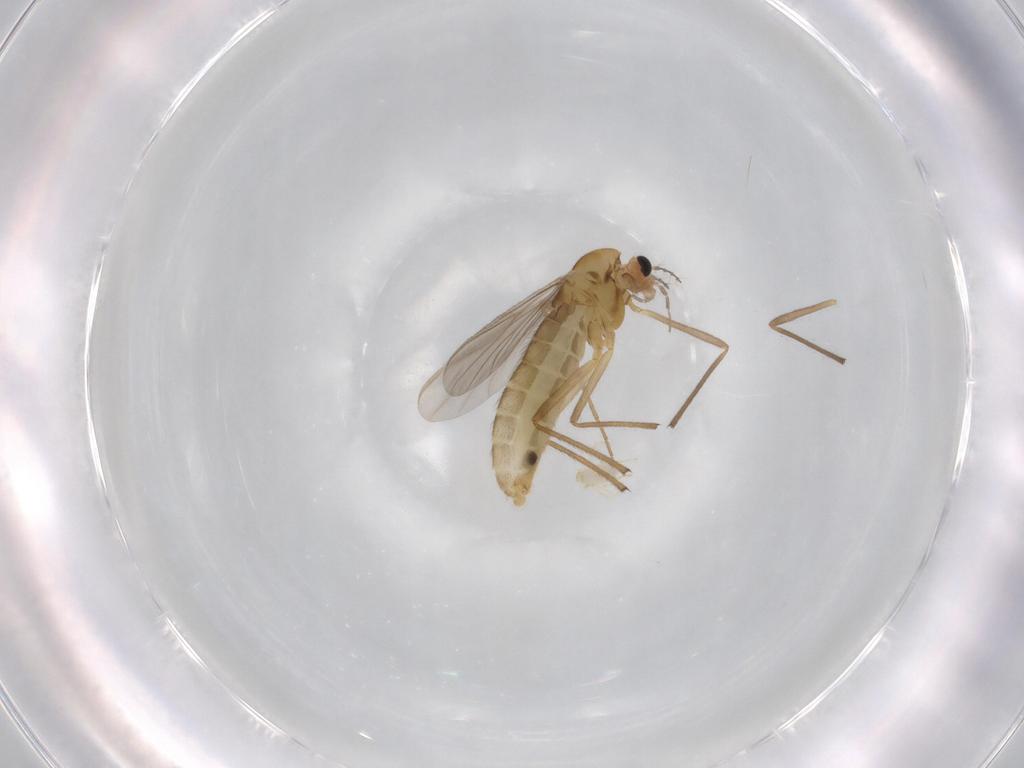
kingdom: Animalia
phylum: Arthropoda
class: Insecta
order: Diptera
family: Chironomidae
